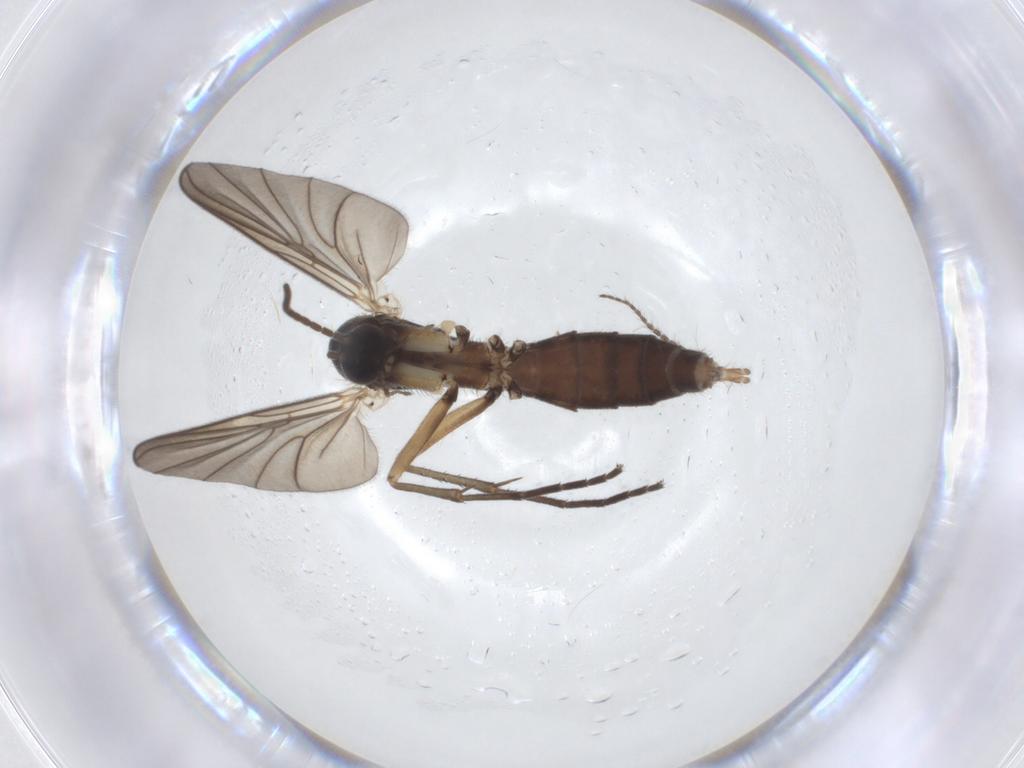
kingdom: Animalia
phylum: Arthropoda
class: Insecta
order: Diptera
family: Phoridae
